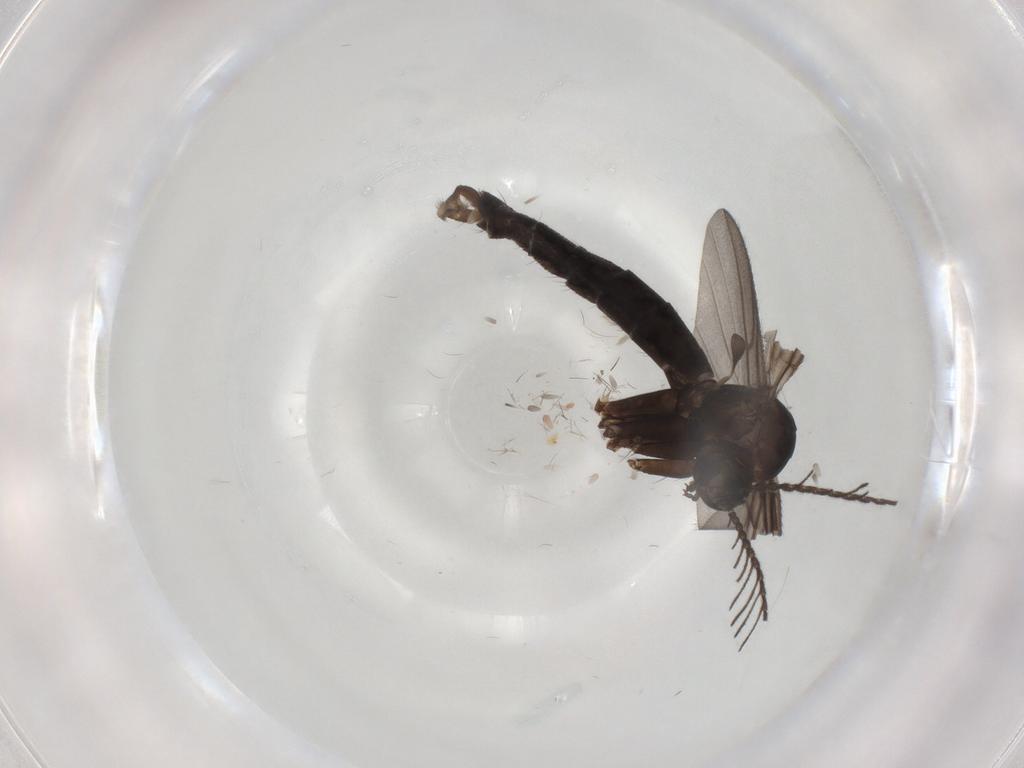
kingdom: Animalia
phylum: Arthropoda
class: Insecta
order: Diptera
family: Ditomyiidae
